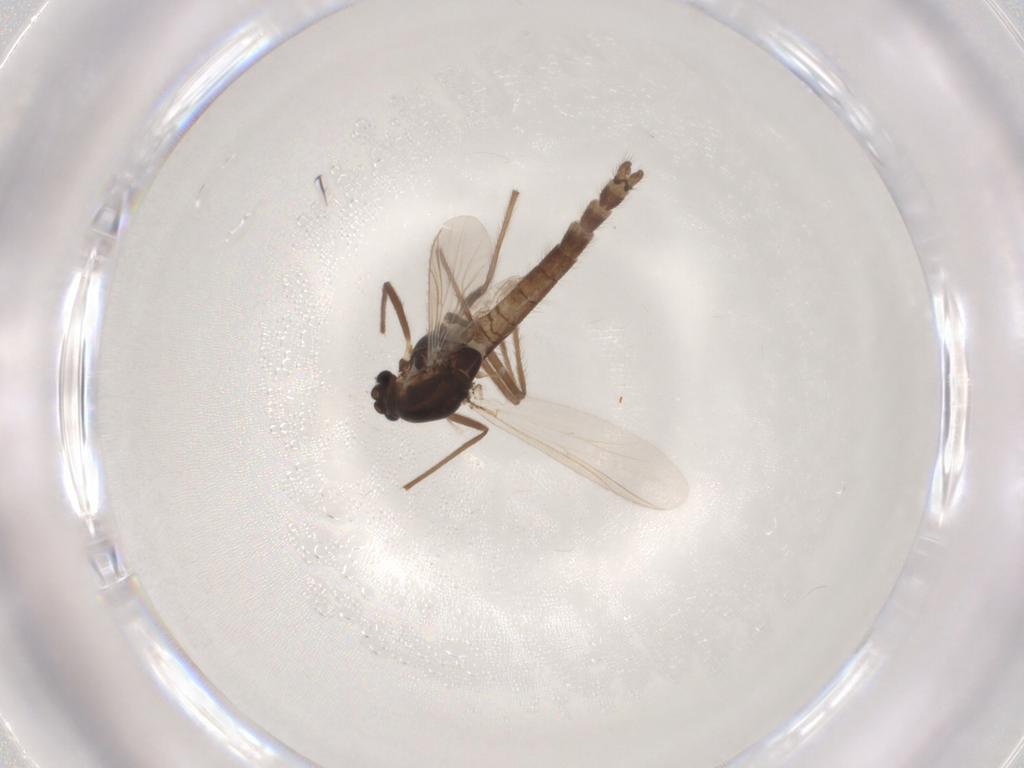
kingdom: Animalia
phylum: Arthropoda
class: Insecta
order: Diptera
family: Chironomidae
